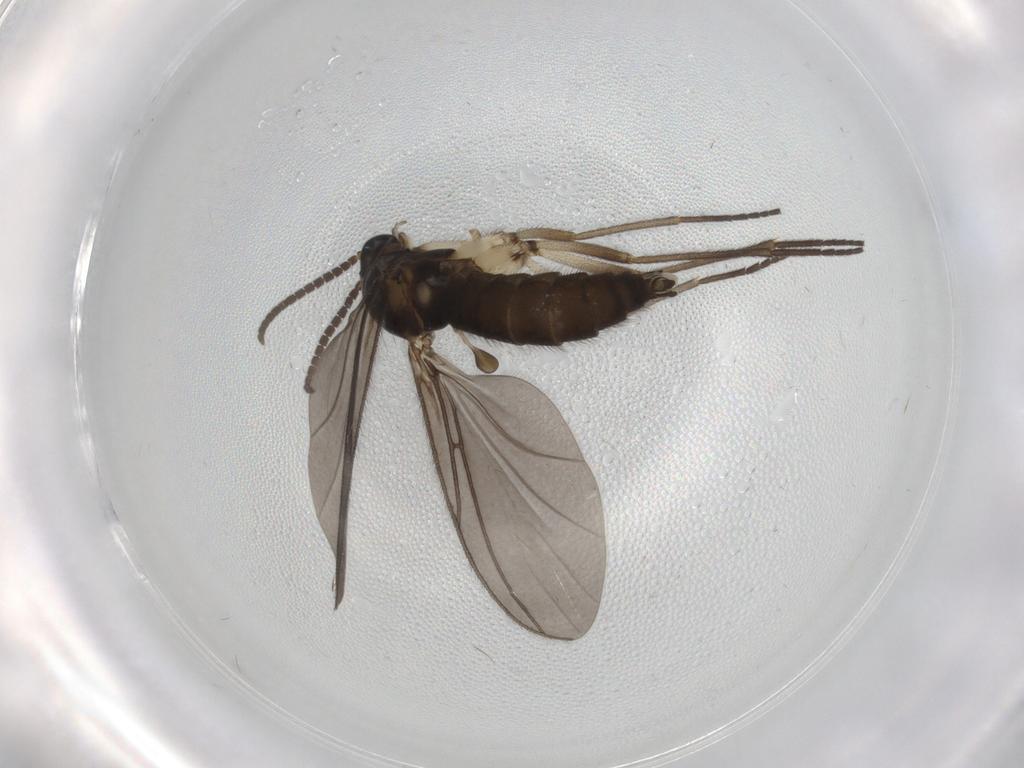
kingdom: Animalia
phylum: Arthropoda
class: Insecta
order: Diptera
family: Sciaridae
